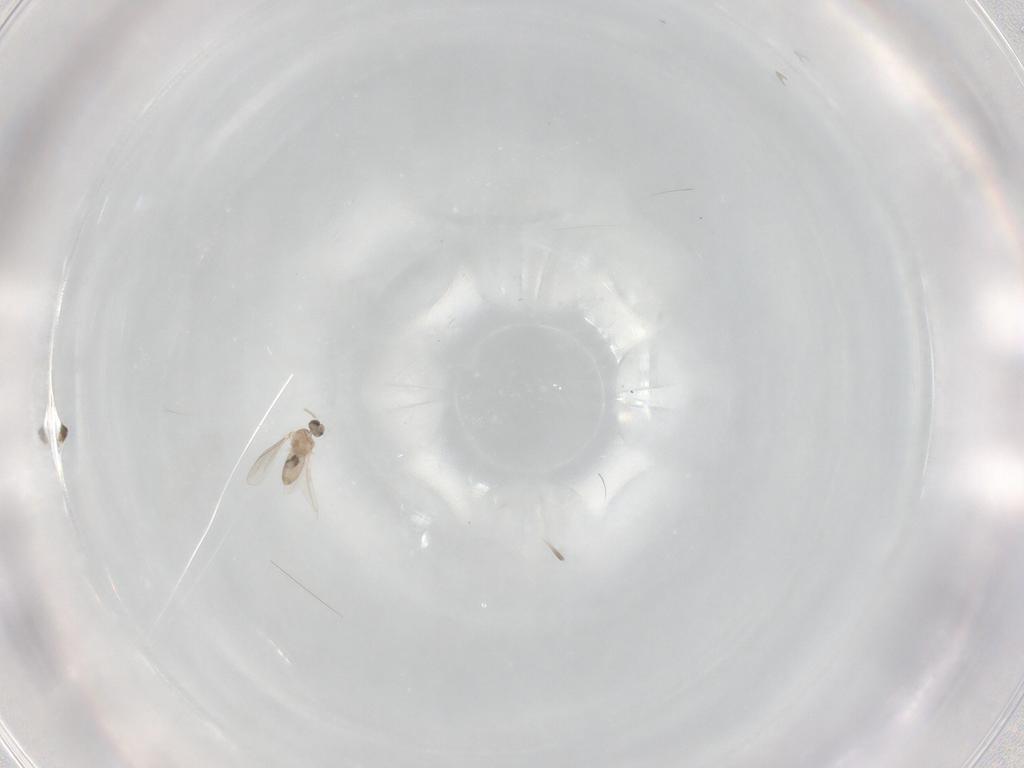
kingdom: Animalia
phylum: Arthropoda
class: Insecta
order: Diptera
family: Cecidomyiidae
